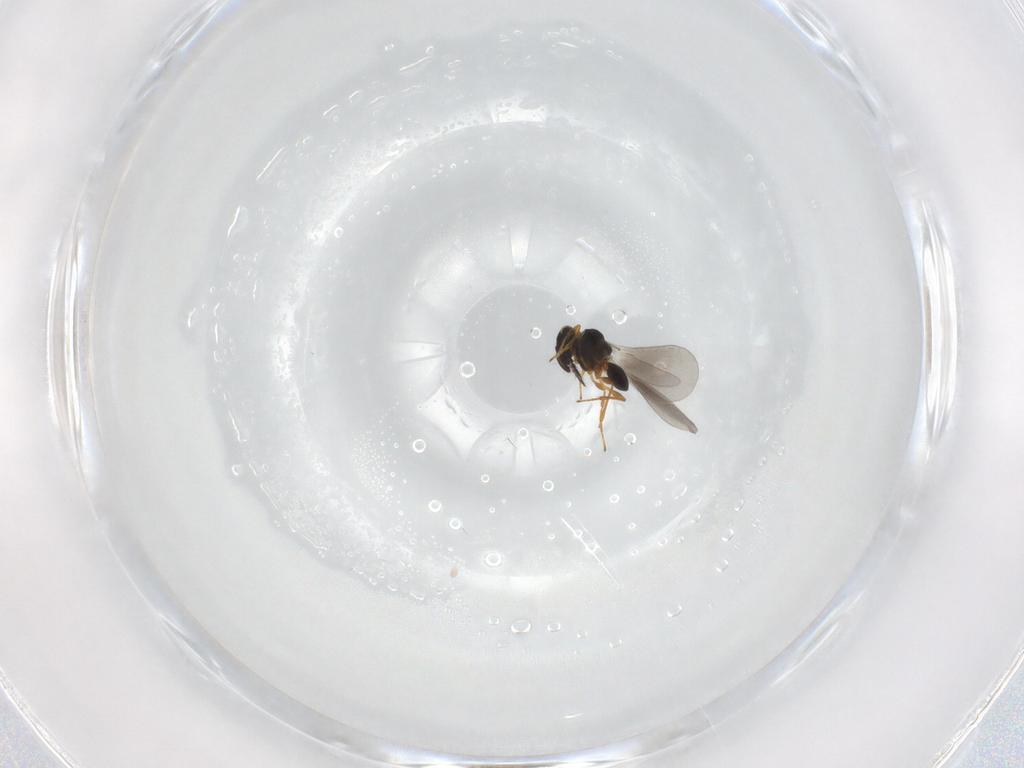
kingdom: Animalia
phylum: Arthropoda
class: Insecta
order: Hymenoptera
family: Platygastridae
